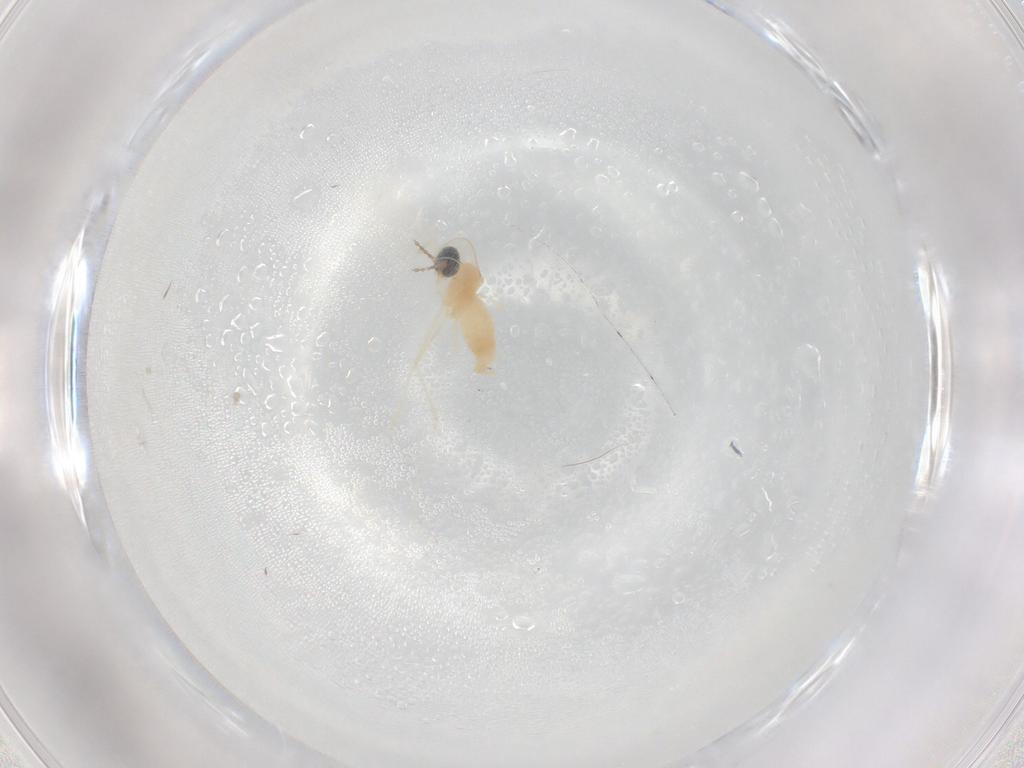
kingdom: Animalia
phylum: Arthropoda
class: Insecta
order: Diptera
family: Cecidomyiidae
